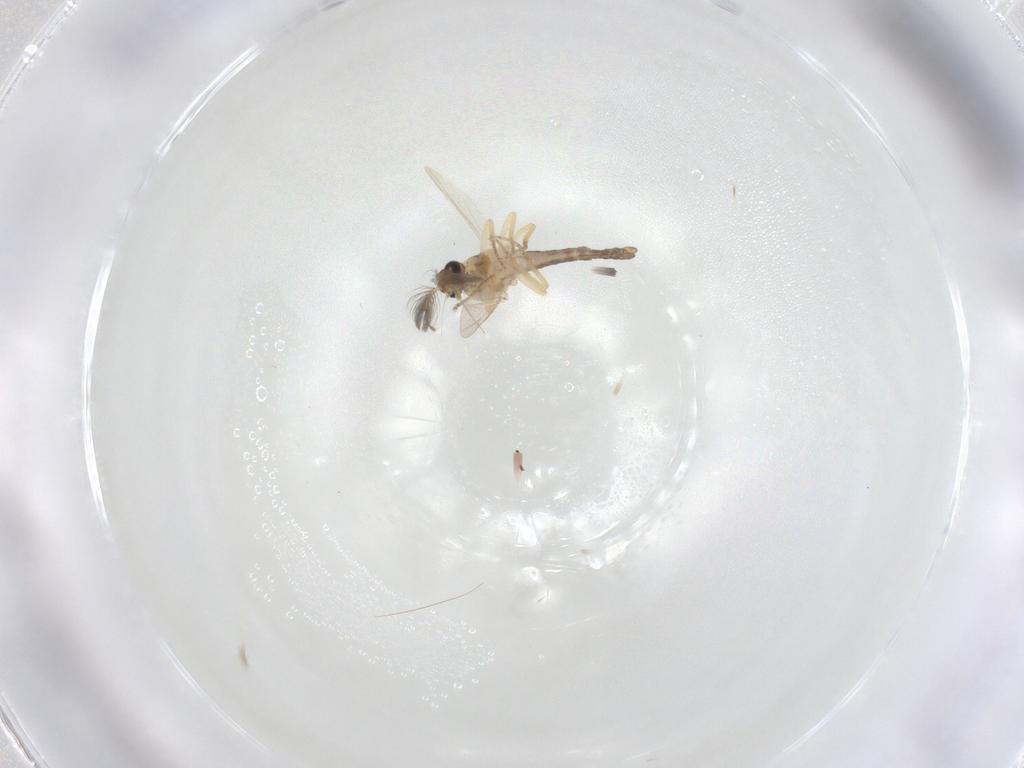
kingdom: Animalia
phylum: Arthropoda
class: Insecta
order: Diptera
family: Ceratopogonidae
